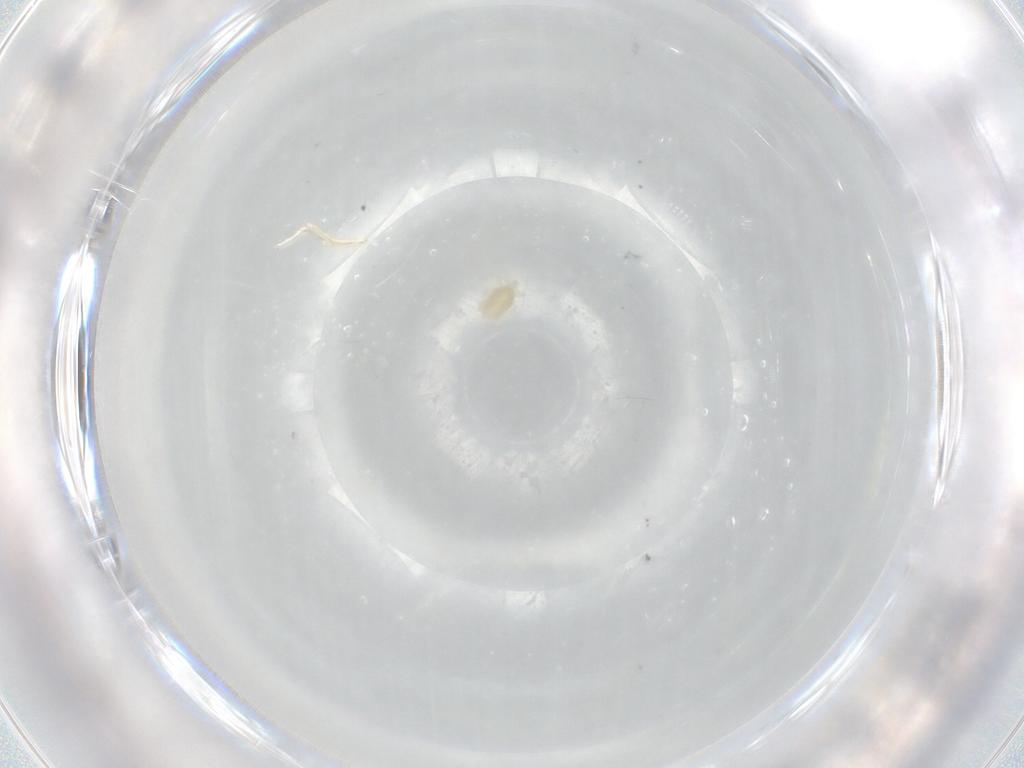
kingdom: Animalia
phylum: Arthropoda
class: Arachnida
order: Trombidiformes
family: Eupodidae
